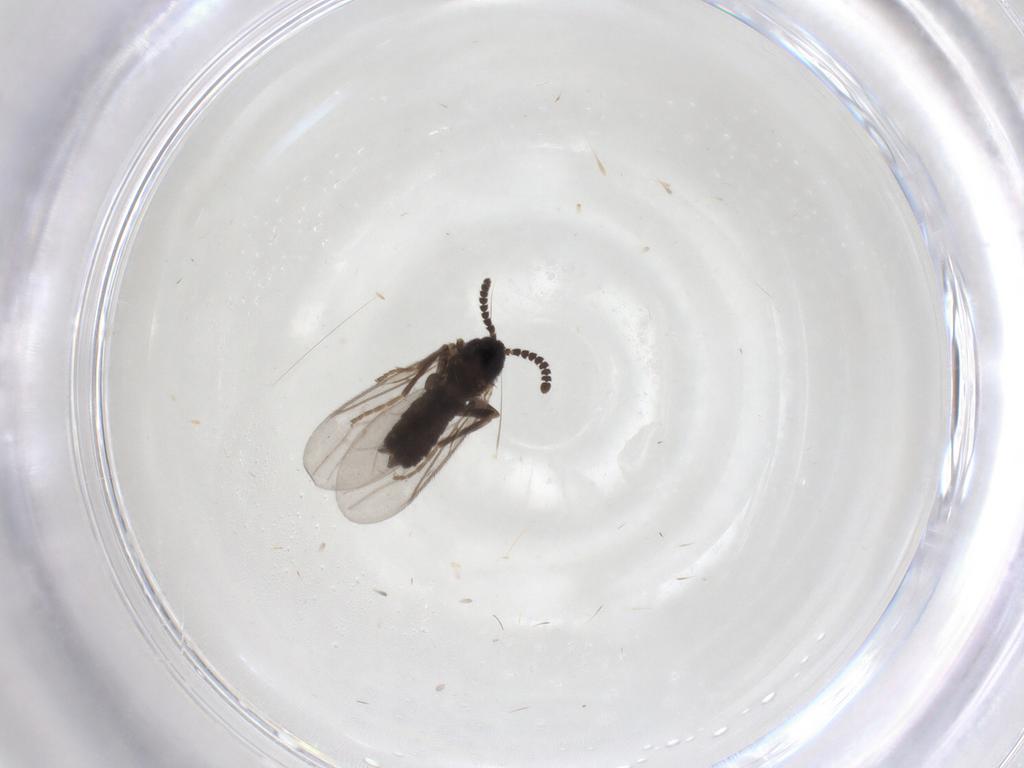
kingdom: Animalia
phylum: Arthropoda
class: Insecta
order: Diptera
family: Scatopsidae
